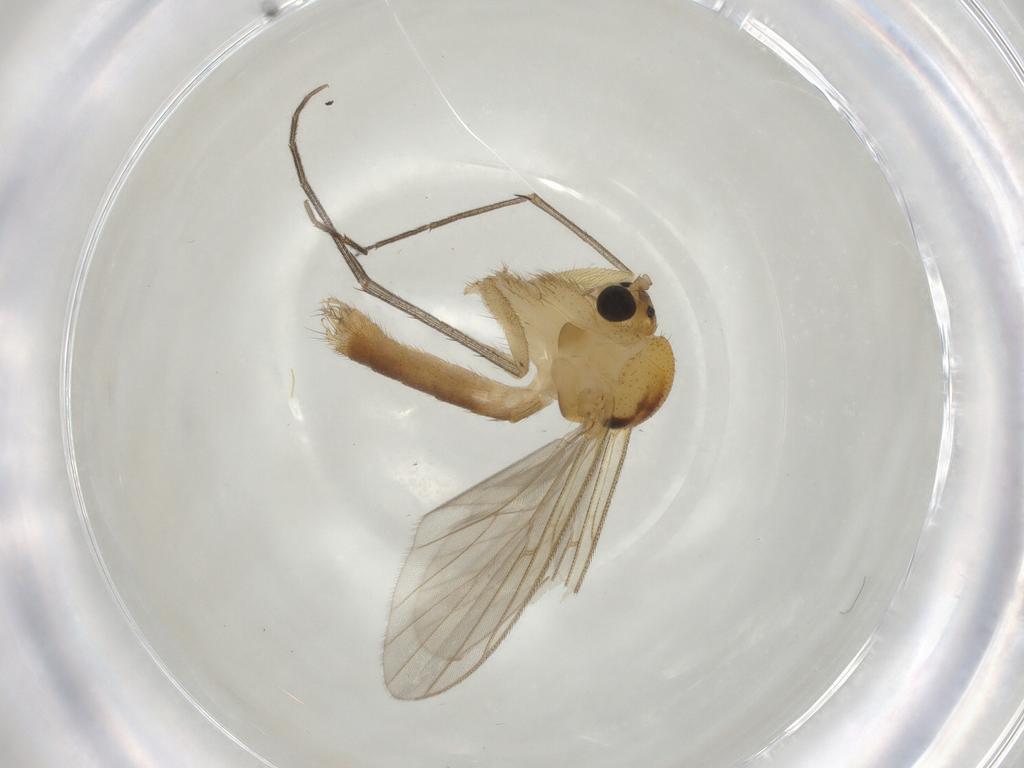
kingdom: Animalia
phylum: Arthropoda
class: Insecta
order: Diptera
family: Mycetophilidae
